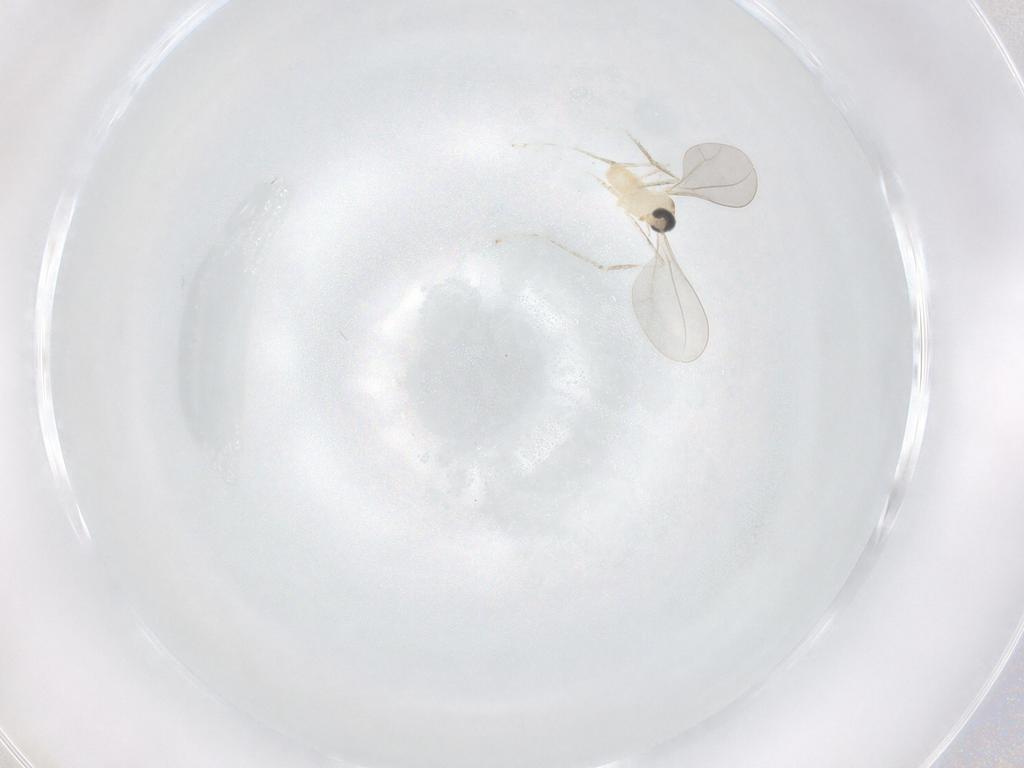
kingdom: Animalia
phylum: Arthropoda
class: Insecta
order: Diptera
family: Cecidomyiidae
